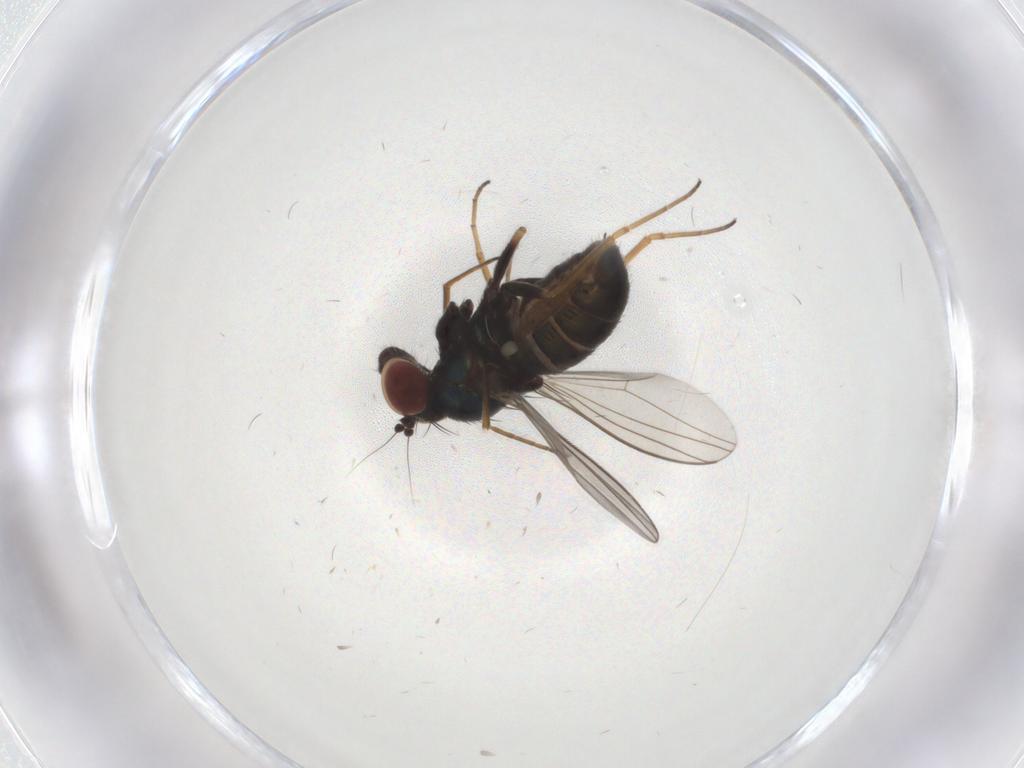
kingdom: Animalia
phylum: Arthropoda
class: Insecta
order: Diptera
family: Dolichopodidae
